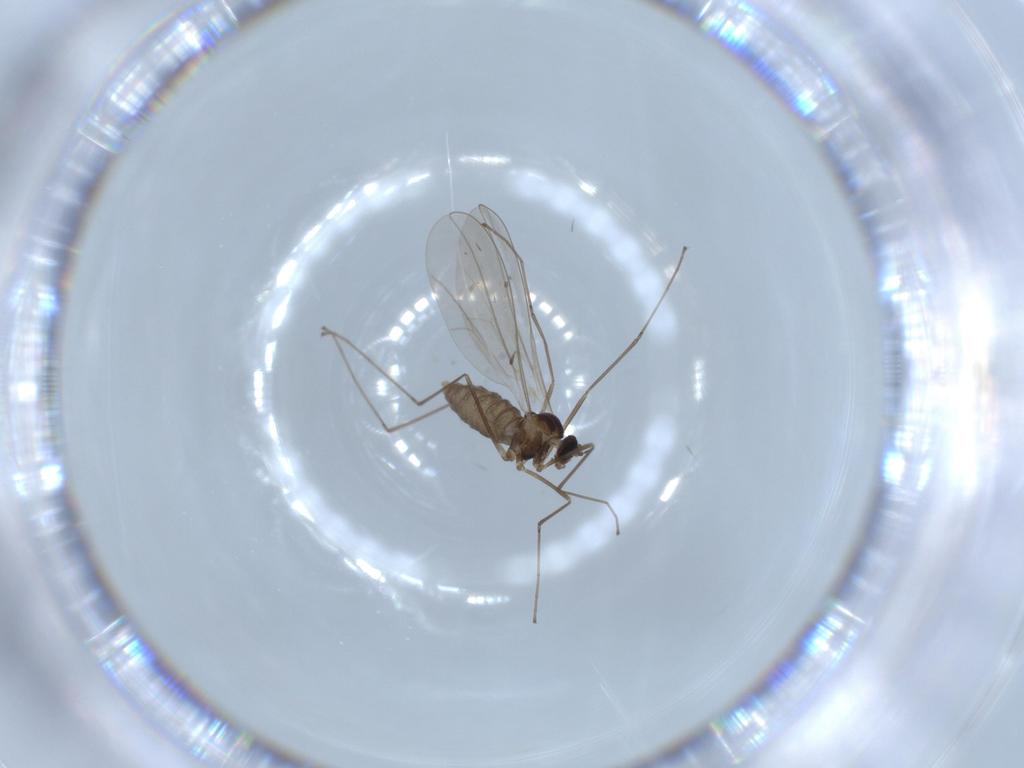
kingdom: Animalia
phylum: Arthropoda
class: Insecta
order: Diptera
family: Cecidomyiidae
